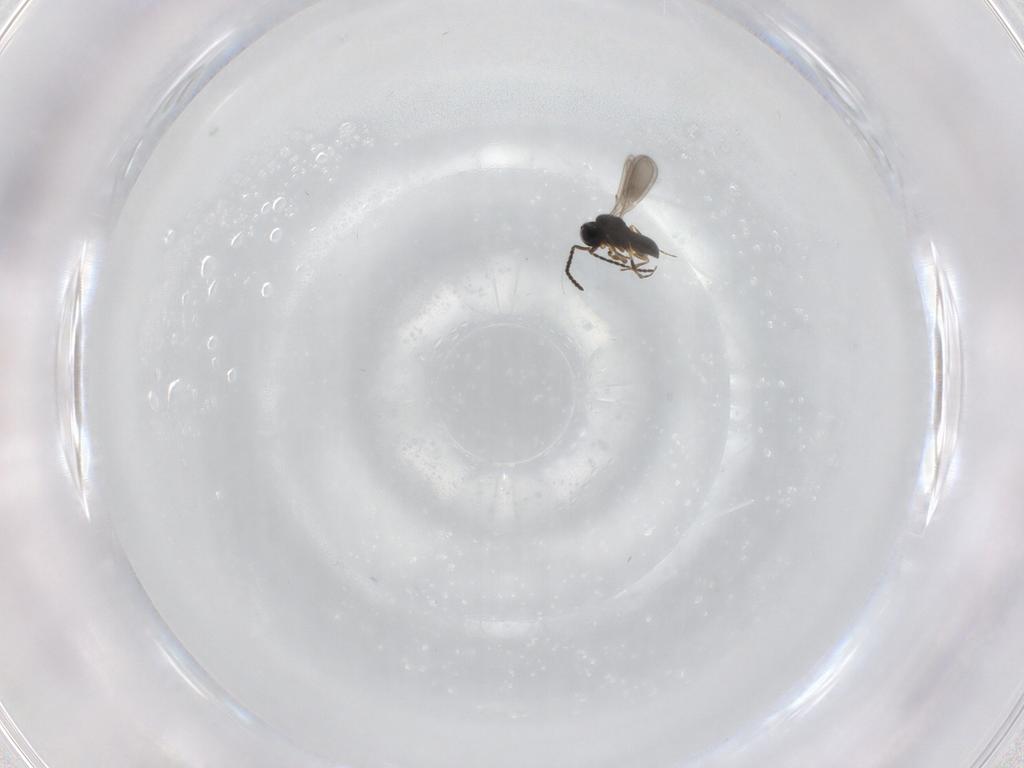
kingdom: Animalia
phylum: Arthropoda
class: Insecta
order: Hymenoptera
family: Scelionidae
